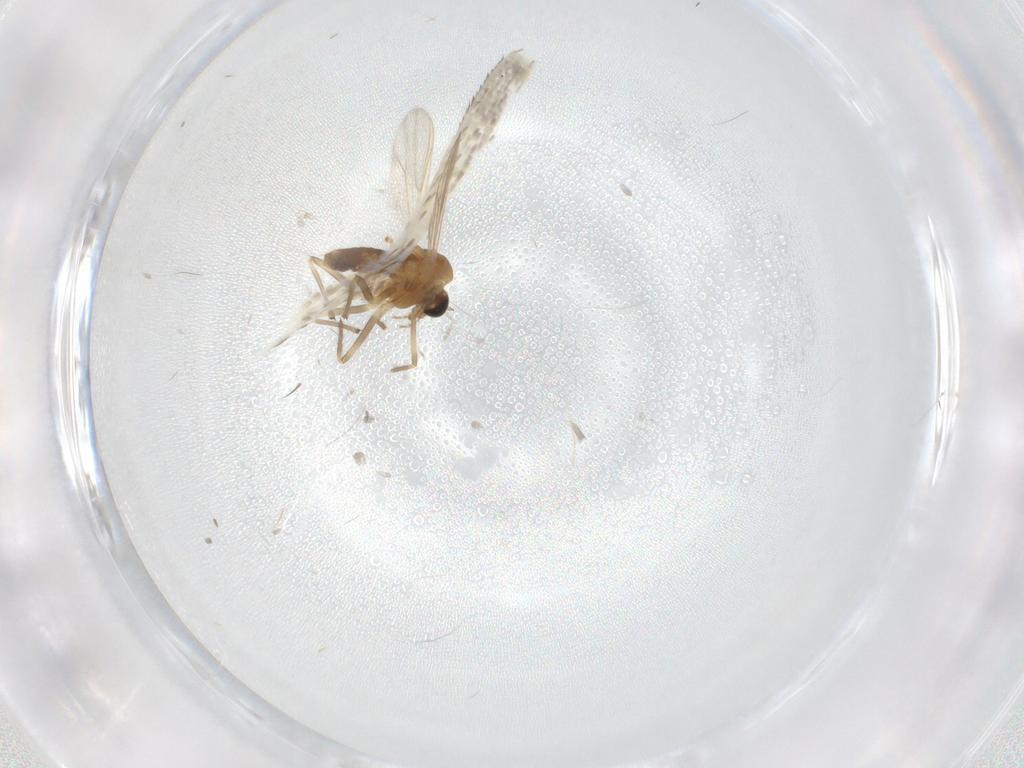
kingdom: Animalia
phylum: Arthropoda
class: Insecta
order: Diptera
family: Chironomidae
